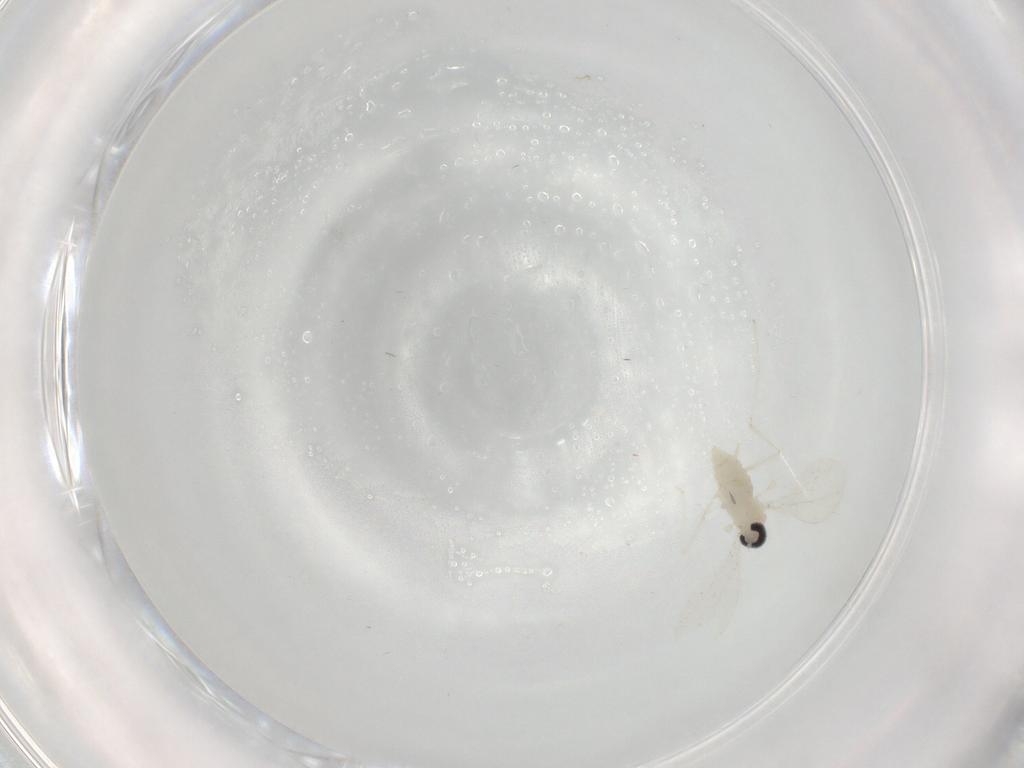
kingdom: Animalia
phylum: Arthropoda
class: Insecta
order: Diptera
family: Cecidomyiidae
